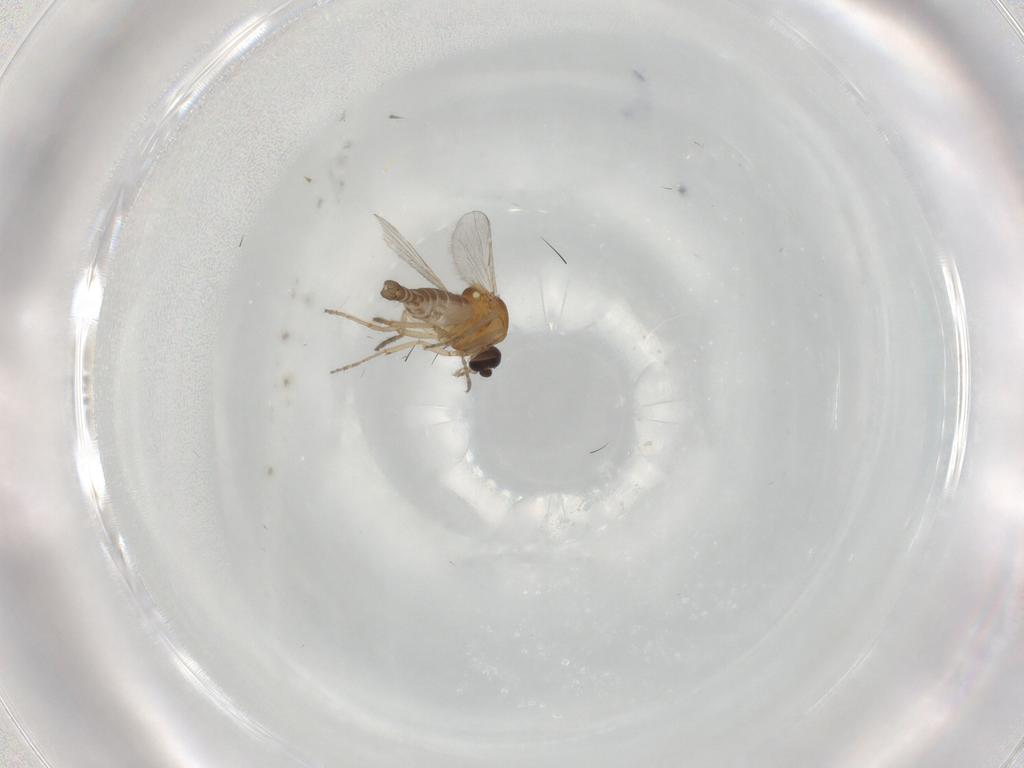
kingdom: Animalia
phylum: Arthropoda
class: Insecta
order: Diptera
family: Ceratopogonidae
